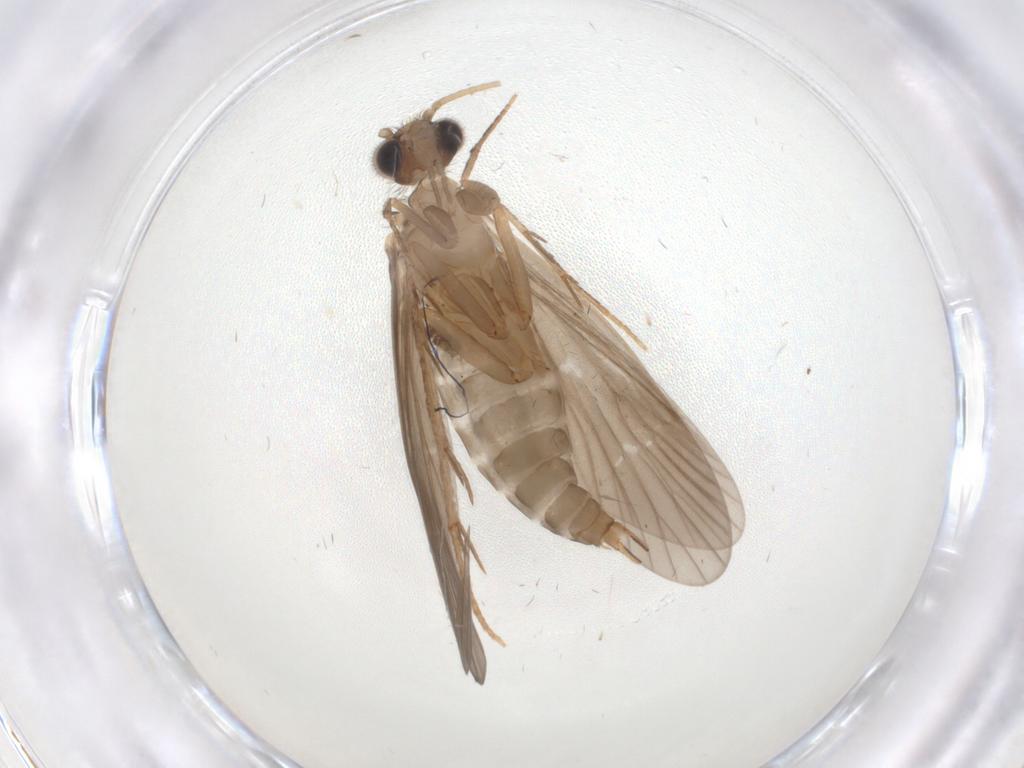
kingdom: Animalia
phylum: Arthropoda
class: Insecta
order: Trichoptera
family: Philopotamidae
